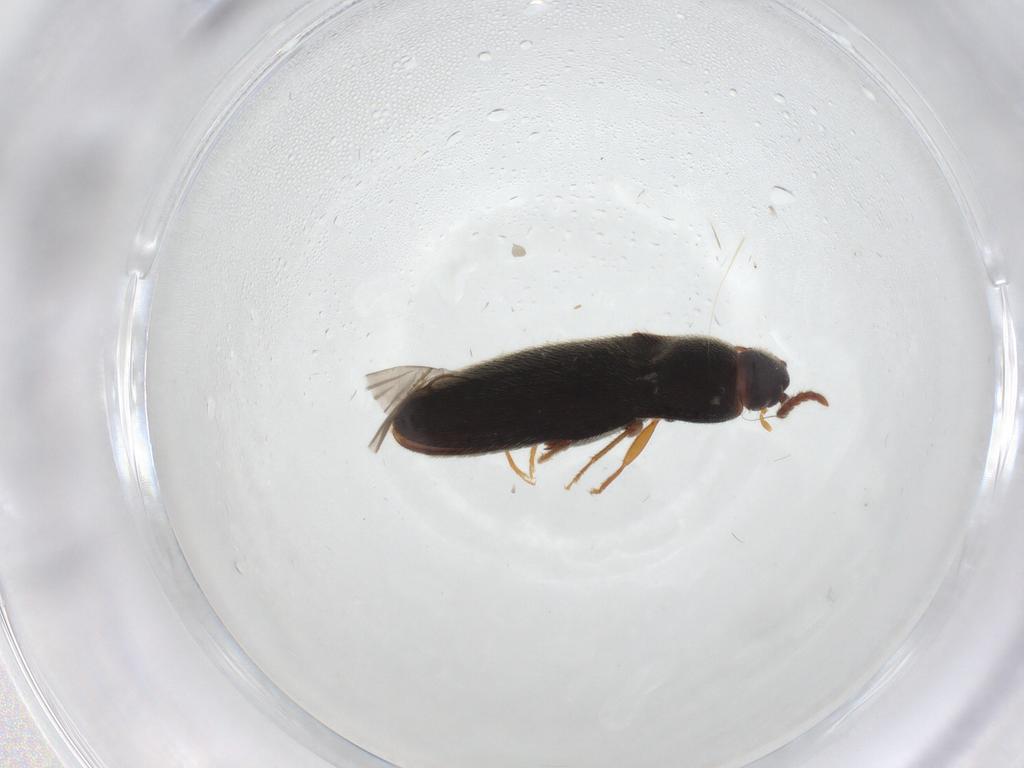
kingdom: Animalia
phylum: Arthropoda
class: Insecta
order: Coleoptera
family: Elateridae
